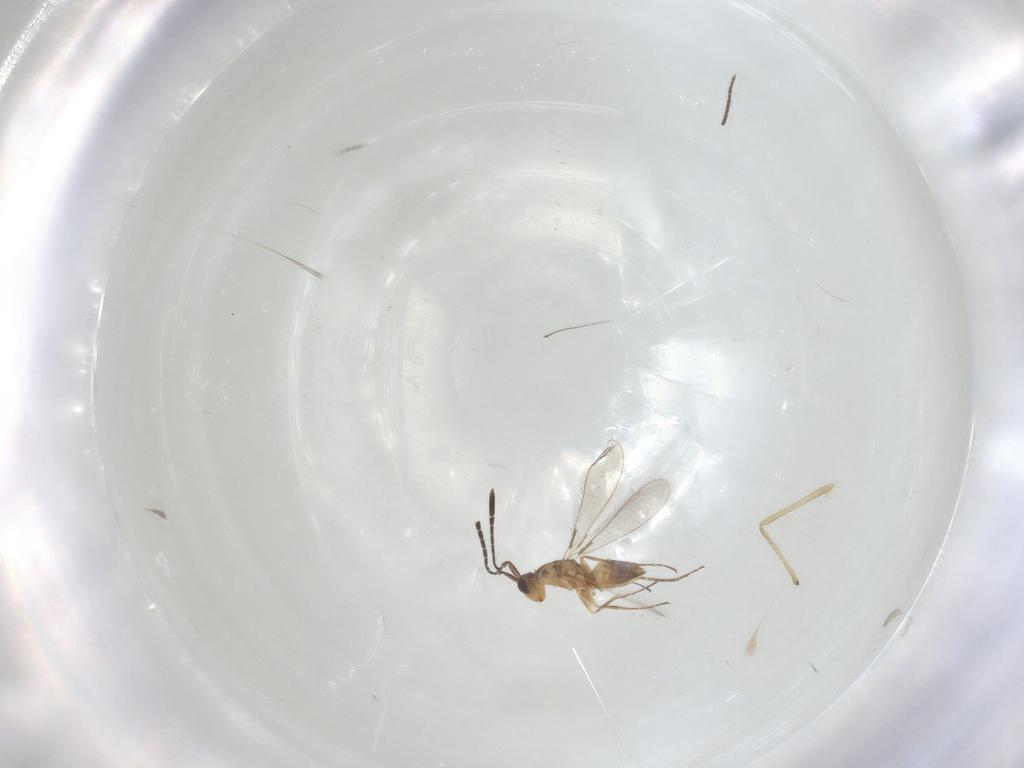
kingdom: Animalia
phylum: Arthropoda
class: Insecta
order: Hymenoptera
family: Mymaridae
